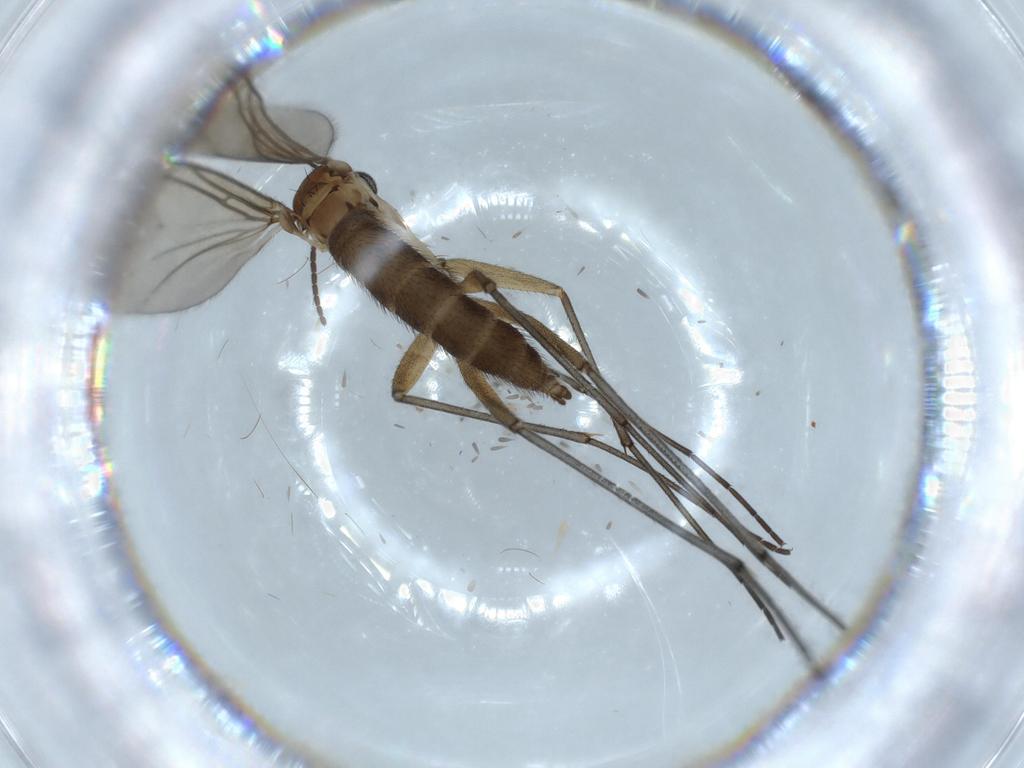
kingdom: Animalia
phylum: Arthropoda
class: Insecta
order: Diptera
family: Sciaridae
